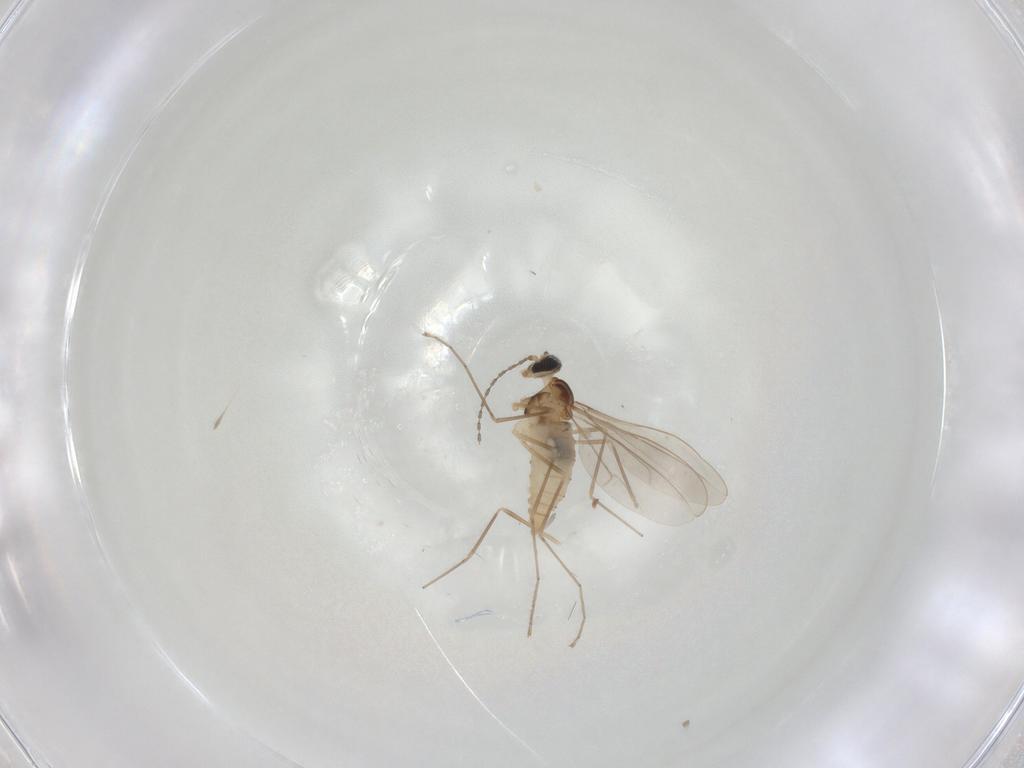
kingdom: Animalia
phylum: Arthropoda
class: Insecta
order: Diptera
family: Cecidomyiidae
